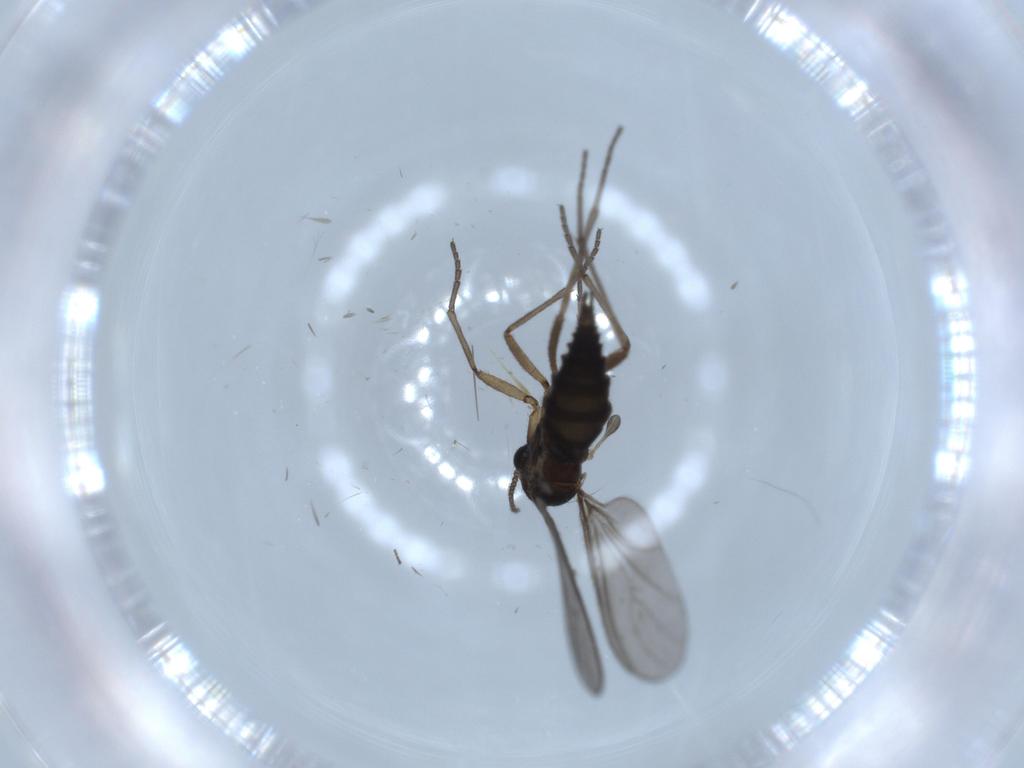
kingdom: Animalia
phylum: Arthropoda
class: Insecta
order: Diptera
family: Sciaridae
